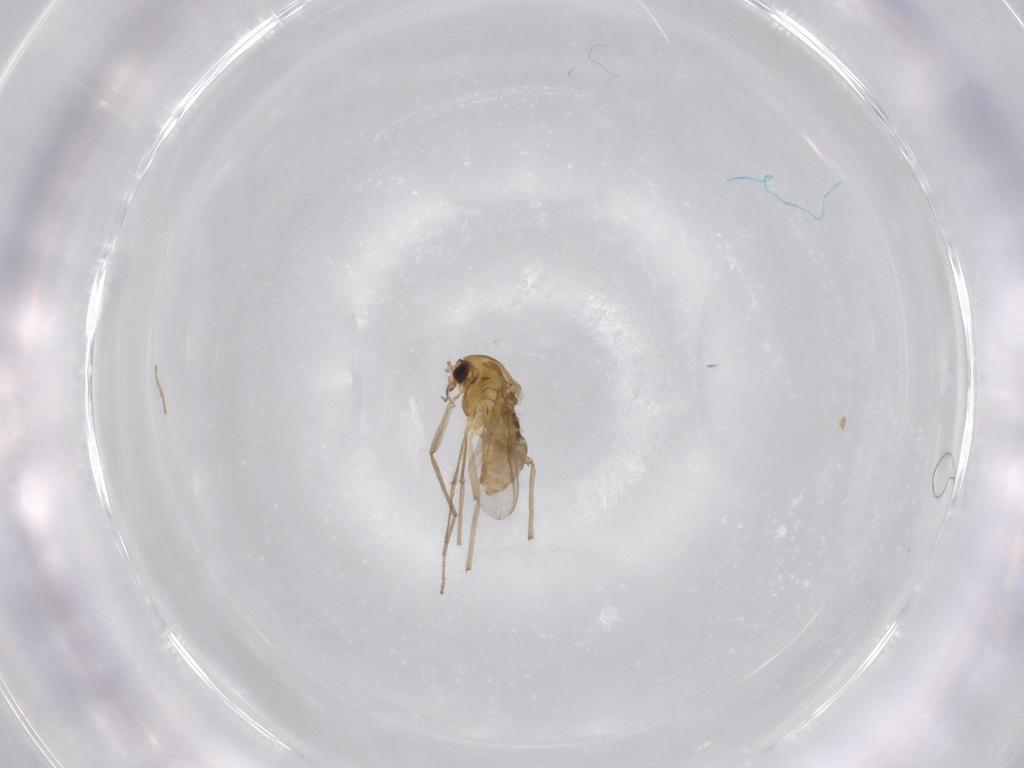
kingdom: Animalia
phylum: Arthropoda
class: Insecta
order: Diptera
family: Chironomidae
